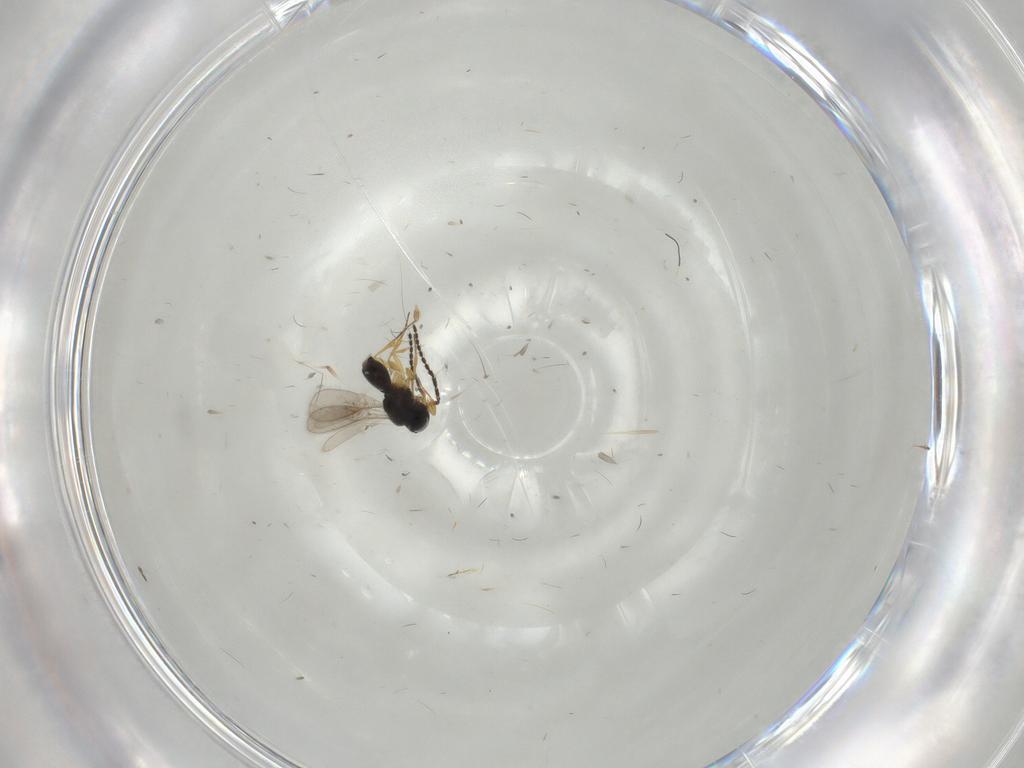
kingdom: Animalia
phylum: Arthropoda
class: Insecta
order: Hymenoptera
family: Scelionidae
